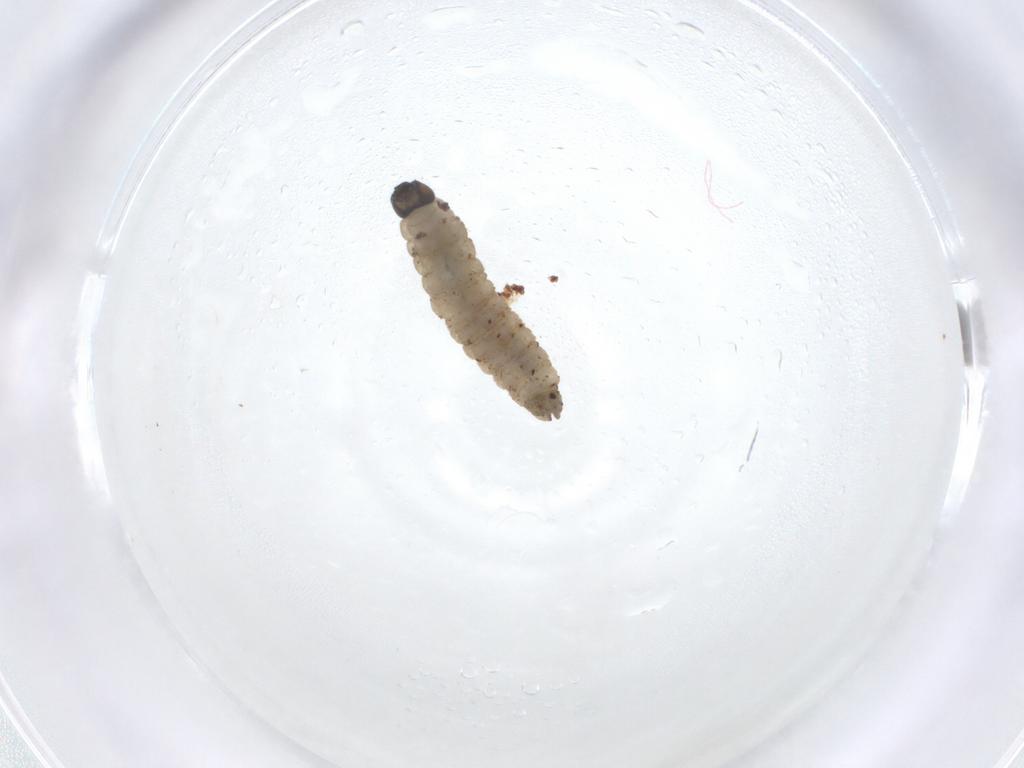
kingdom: Animalia
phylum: Arthropoda
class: Insecta
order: Diptera
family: Trichoceridae
